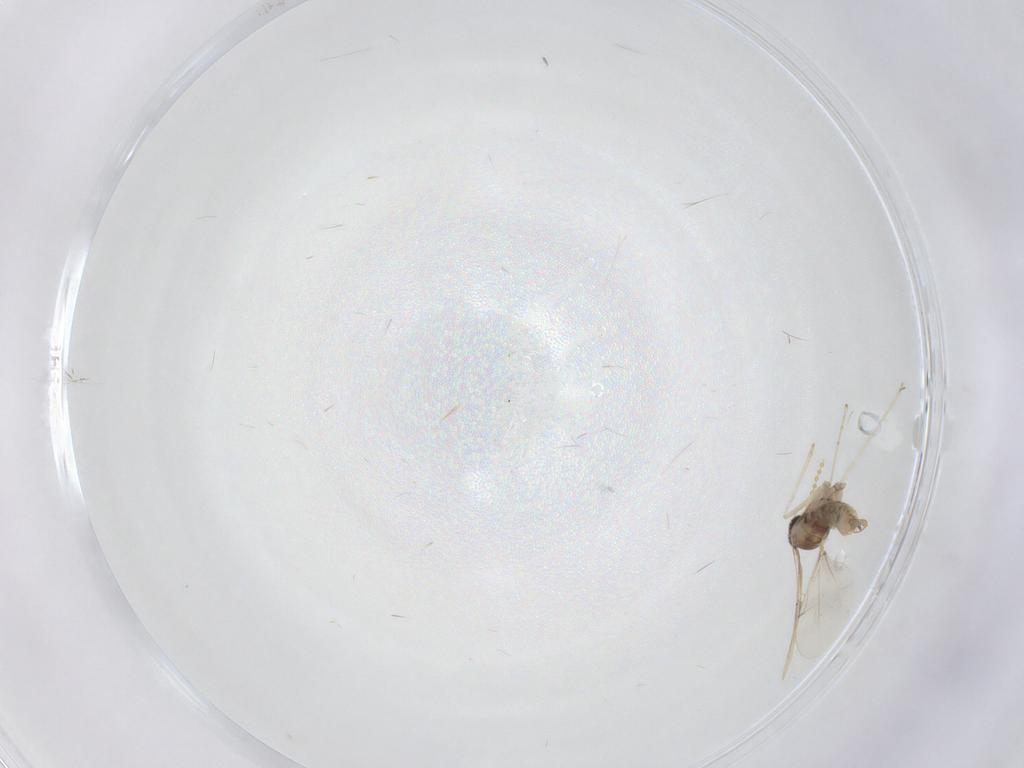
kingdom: Animalia
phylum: Arthropoda
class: Insecta
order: Diptera
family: Cecidomyiidae
